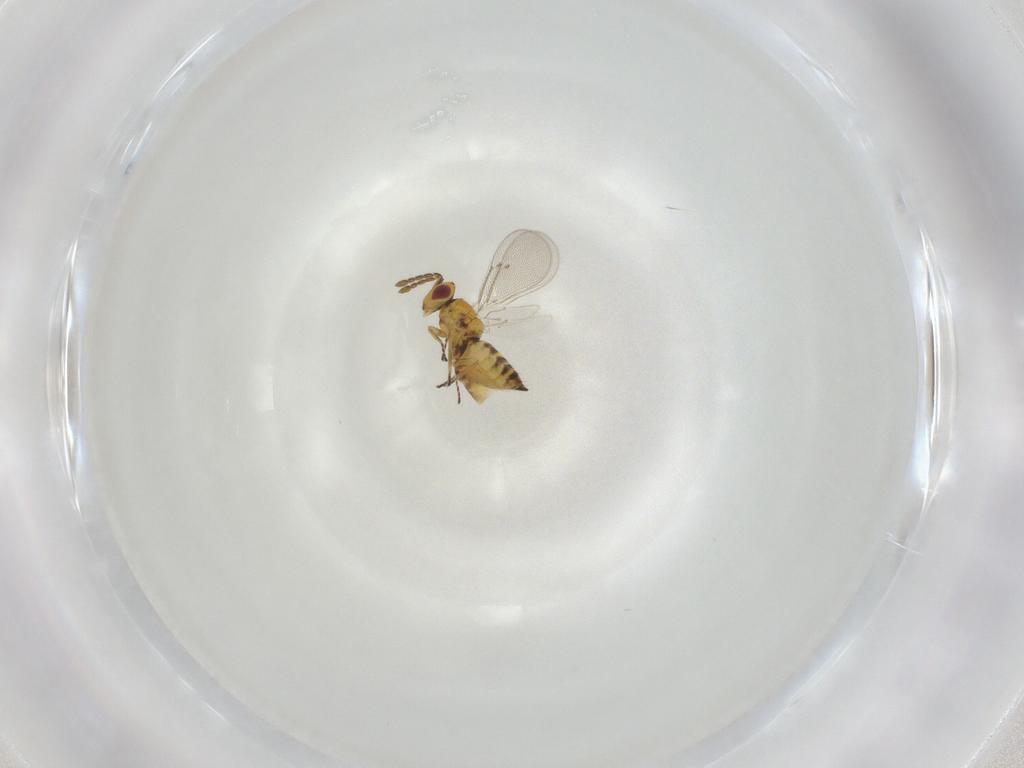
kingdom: Animalia
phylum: Arthropoda
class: Insecta
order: Hymenoptera
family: Eulophidae
